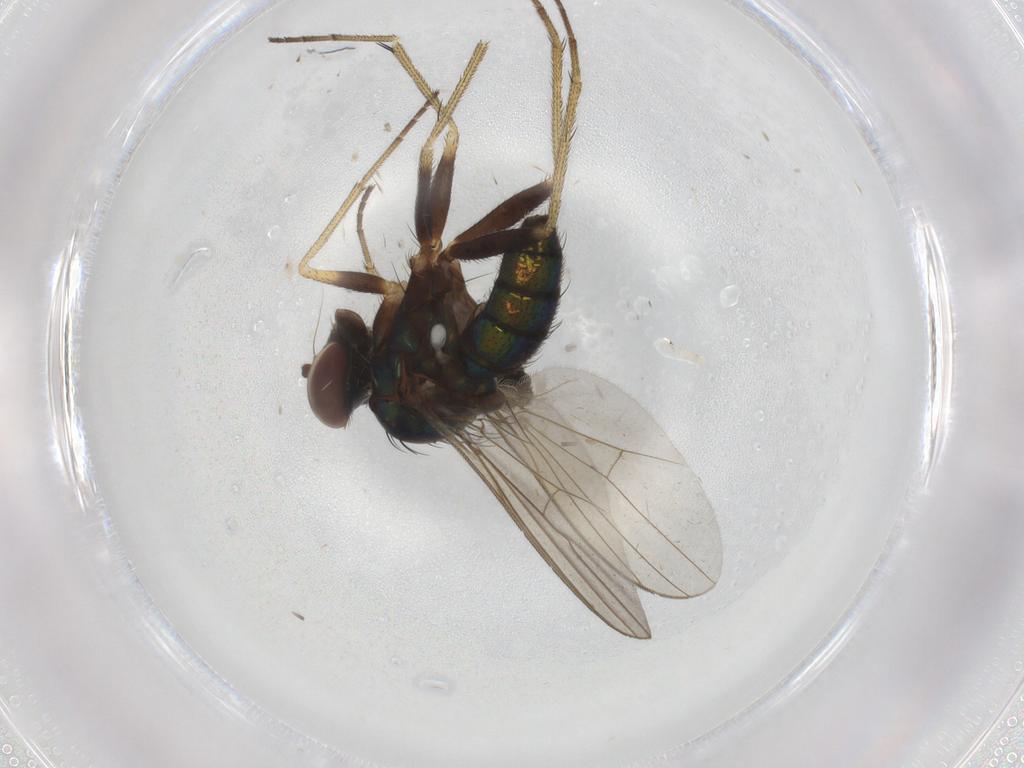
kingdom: Animalia
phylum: Arthropoda
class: Insecta
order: Diptera
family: Dolichopodidae
